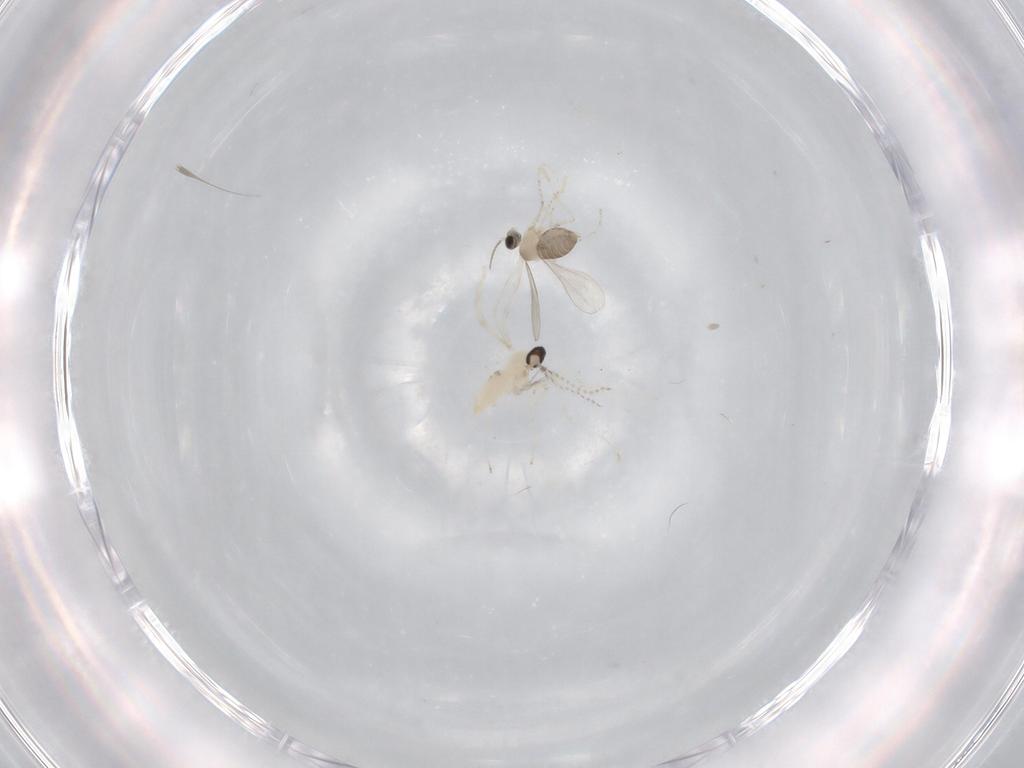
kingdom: Animalia
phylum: Arthropoda
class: Insecta
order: Diptera
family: Cecidomyiidae
